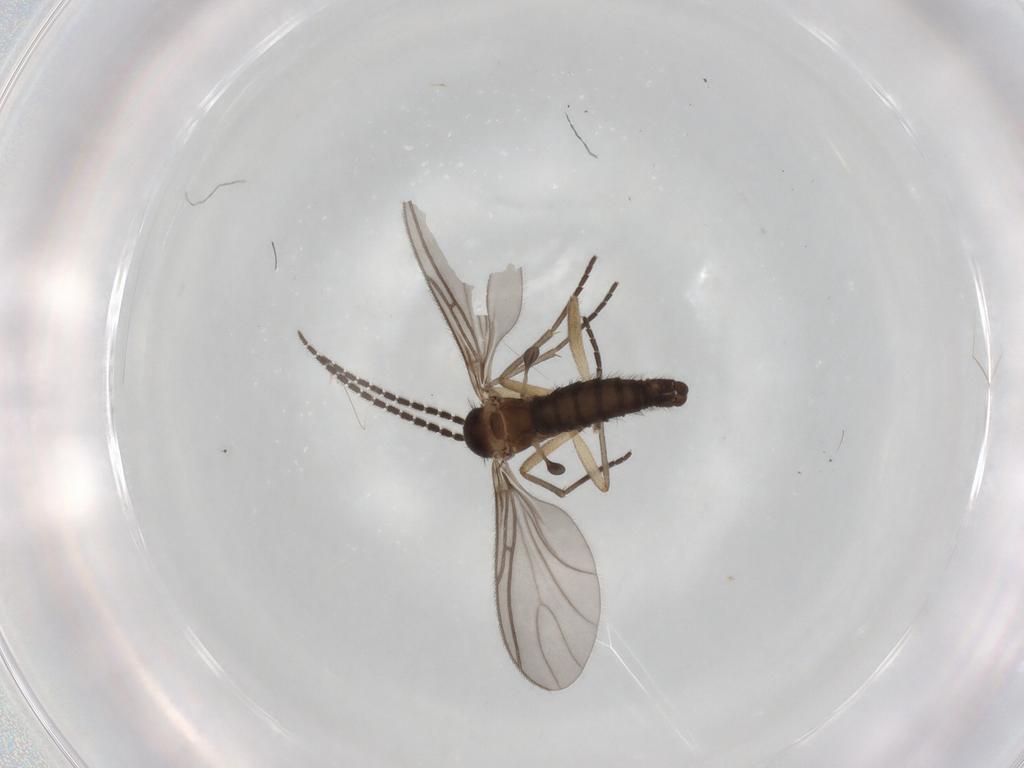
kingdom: Animalia
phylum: Arthropoda
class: Insecta
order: Diptera
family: Sciaridae
